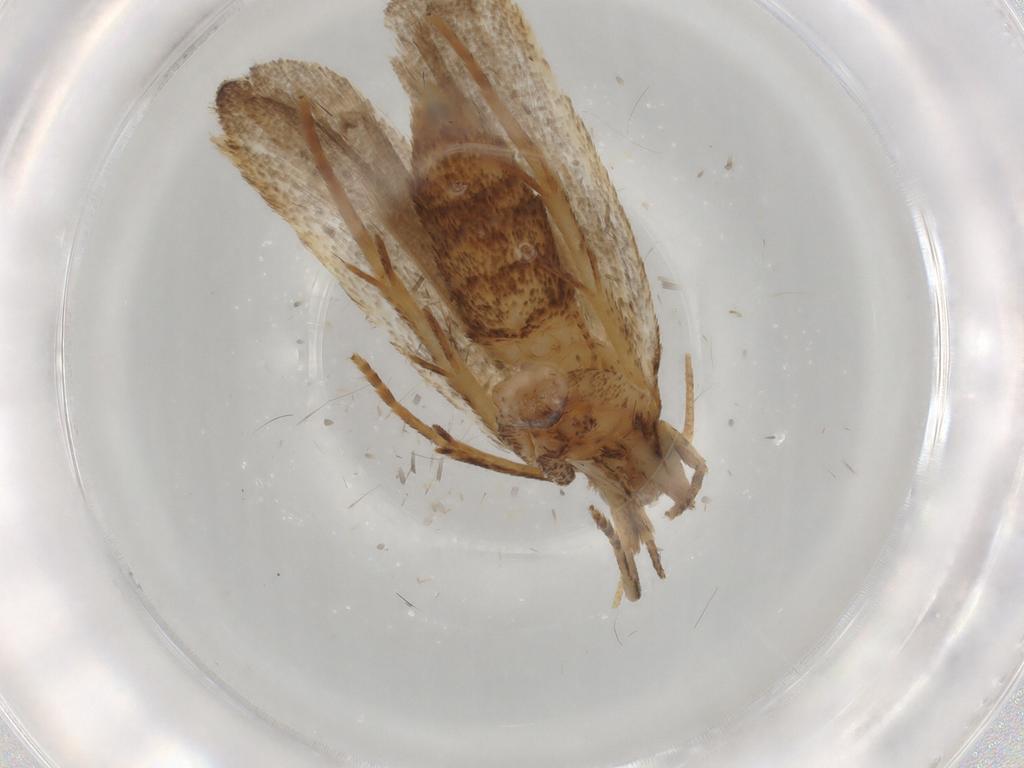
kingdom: Animalia
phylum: Arthropoda
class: Insecta
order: Lepidoptera
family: Autostichidae
